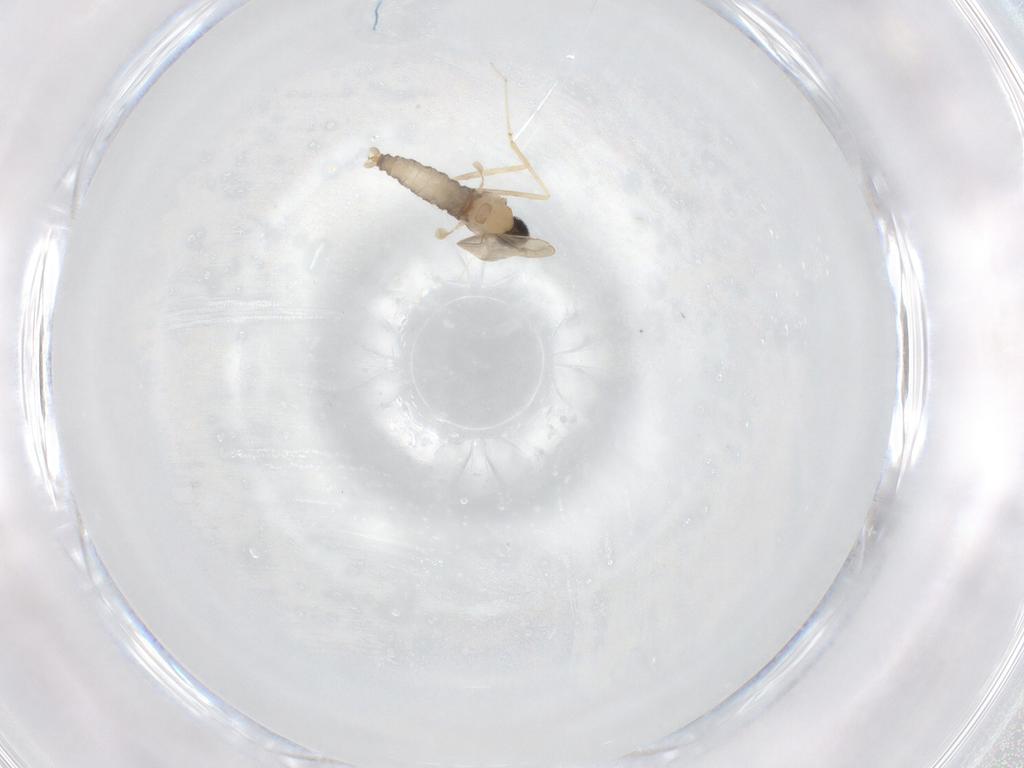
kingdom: Animalia
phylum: Arthropoda
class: Insecta
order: Diptera
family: Cecidomyiidae
